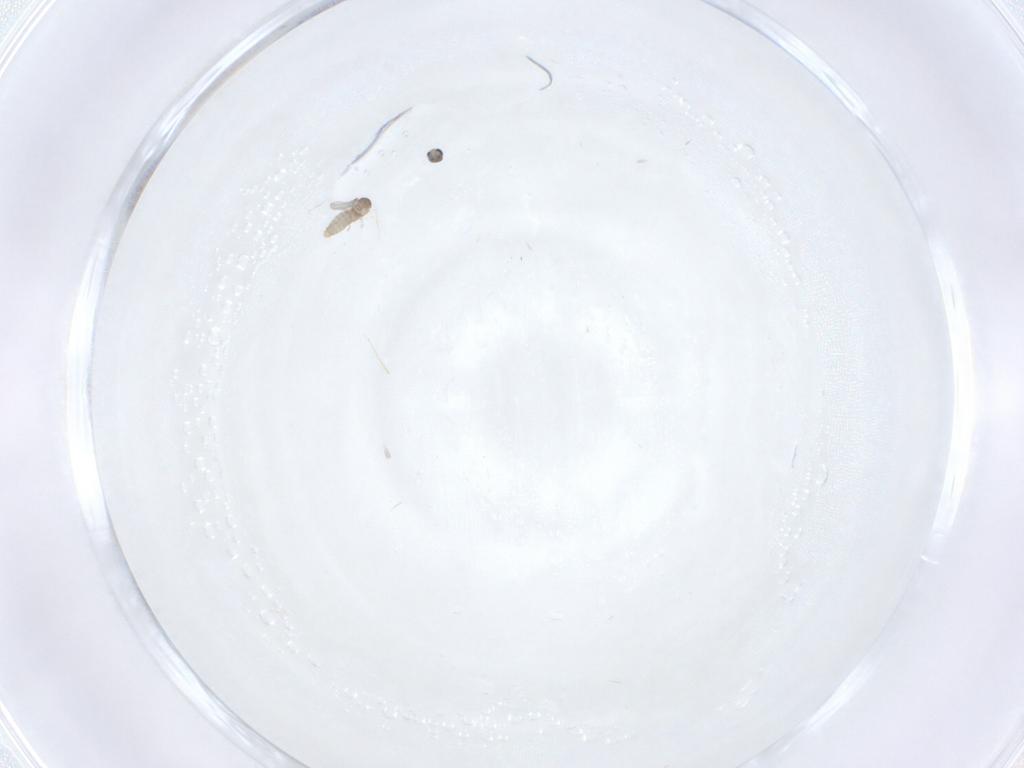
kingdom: Animalia
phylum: Arthropoda
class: Insecta
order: Diptera
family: Cecidomyiidae
